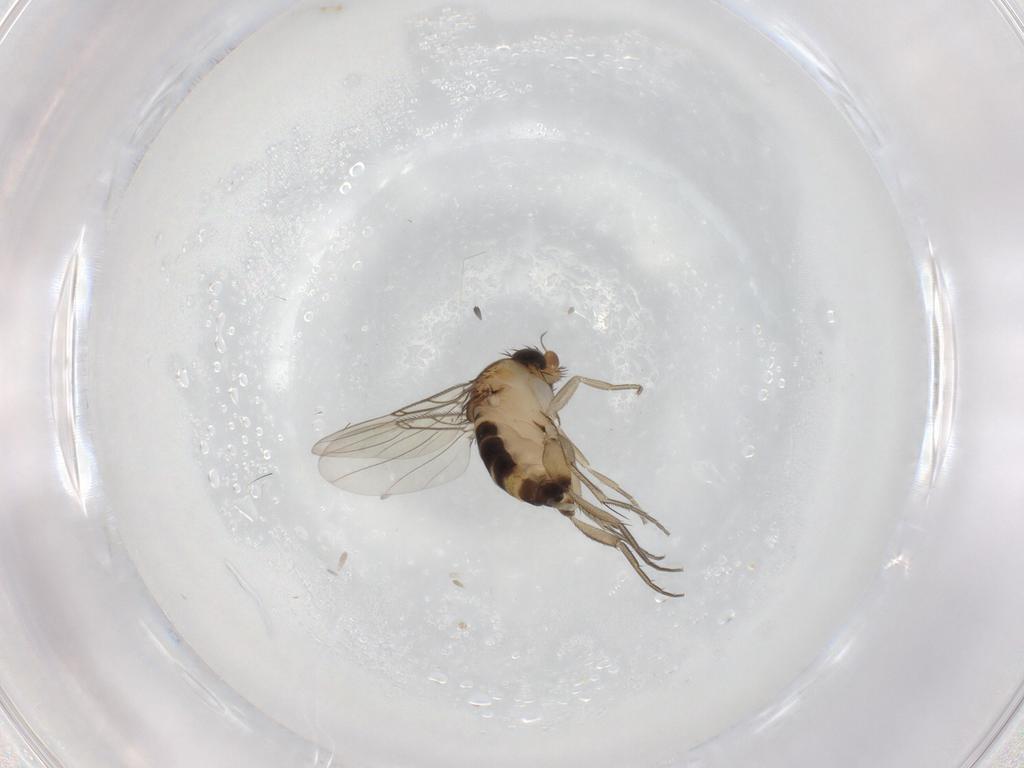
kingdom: Animalia
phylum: Arthropoda
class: Insecta
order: Diptera
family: Phoridae
